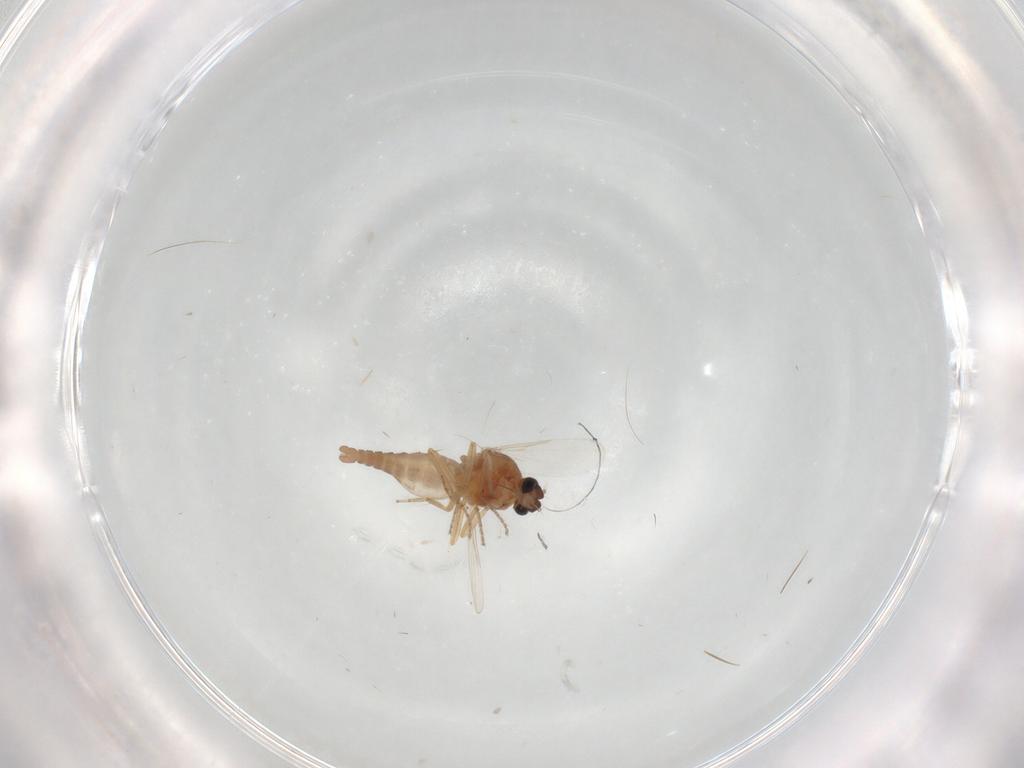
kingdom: Animalia
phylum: Arthropoda
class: Insecta
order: Diptera
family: Ceratopogonidae
